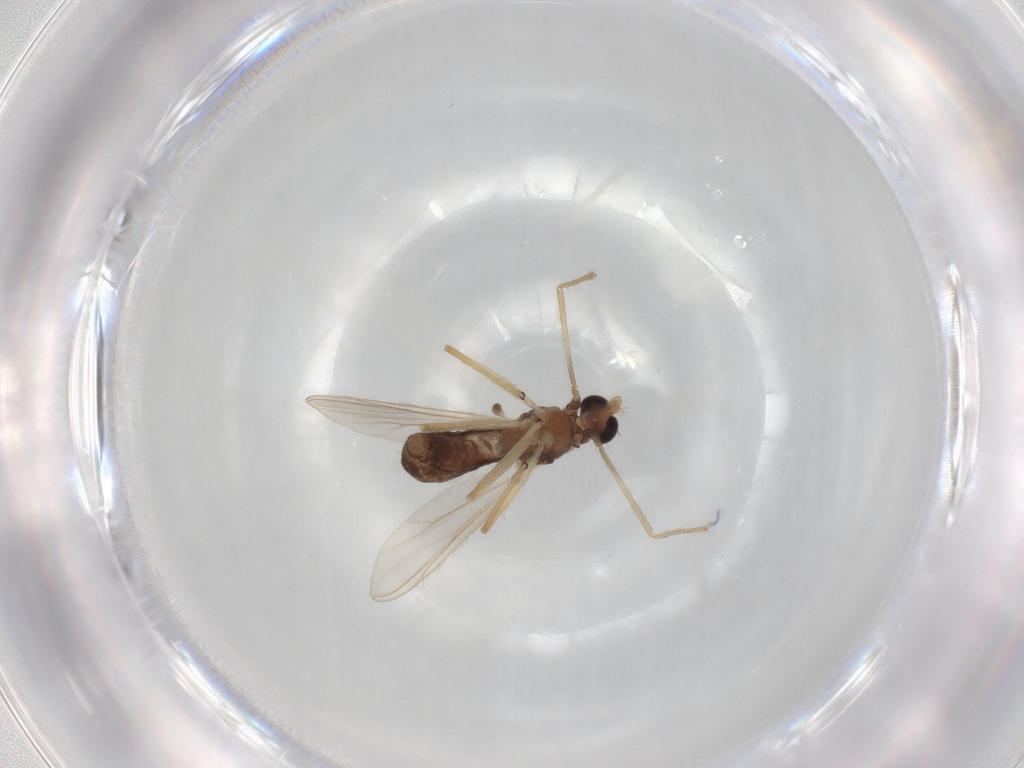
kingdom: Animalia
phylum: Arthropoda
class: Insecta
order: Diptera
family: Chironomidae
